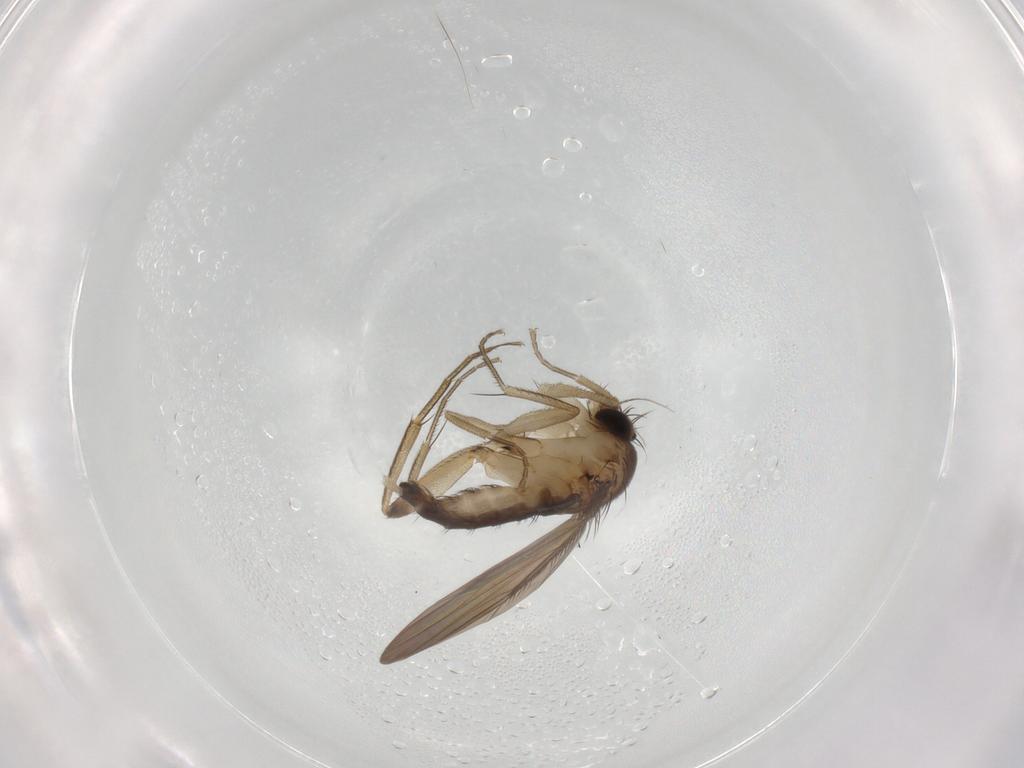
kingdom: Animalia
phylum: Arthropoda
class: Insecta
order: Diptera
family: Phoridae
